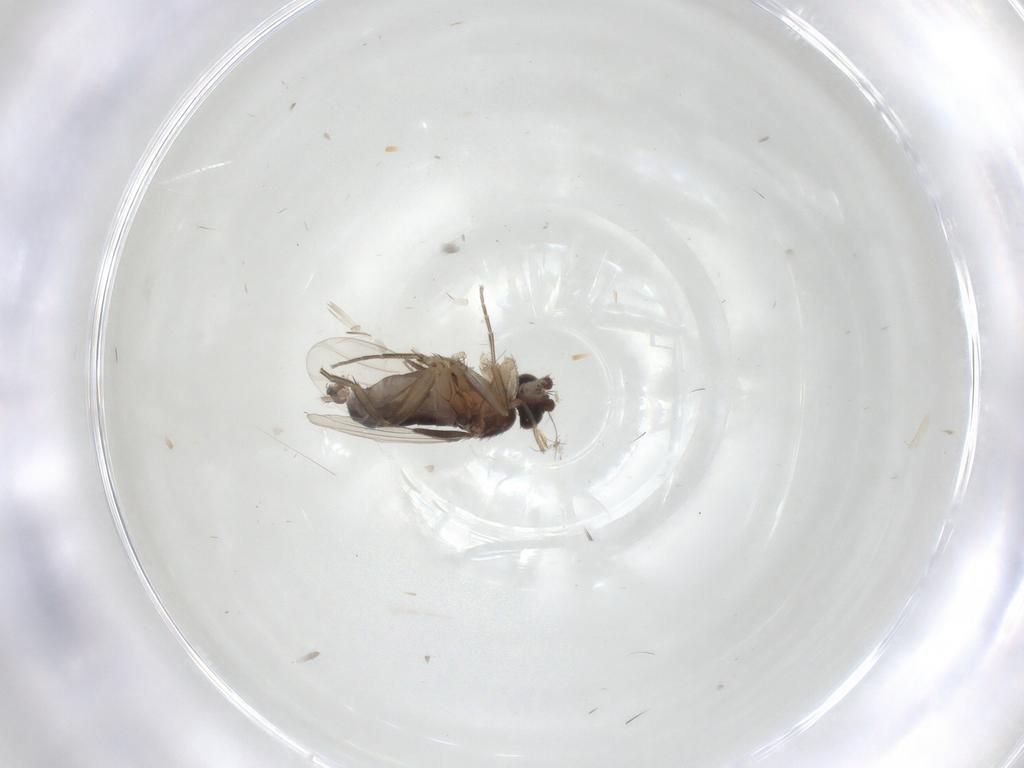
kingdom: Animalia
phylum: Arthropoda
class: Insecta
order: Diptera
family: Phoridae
